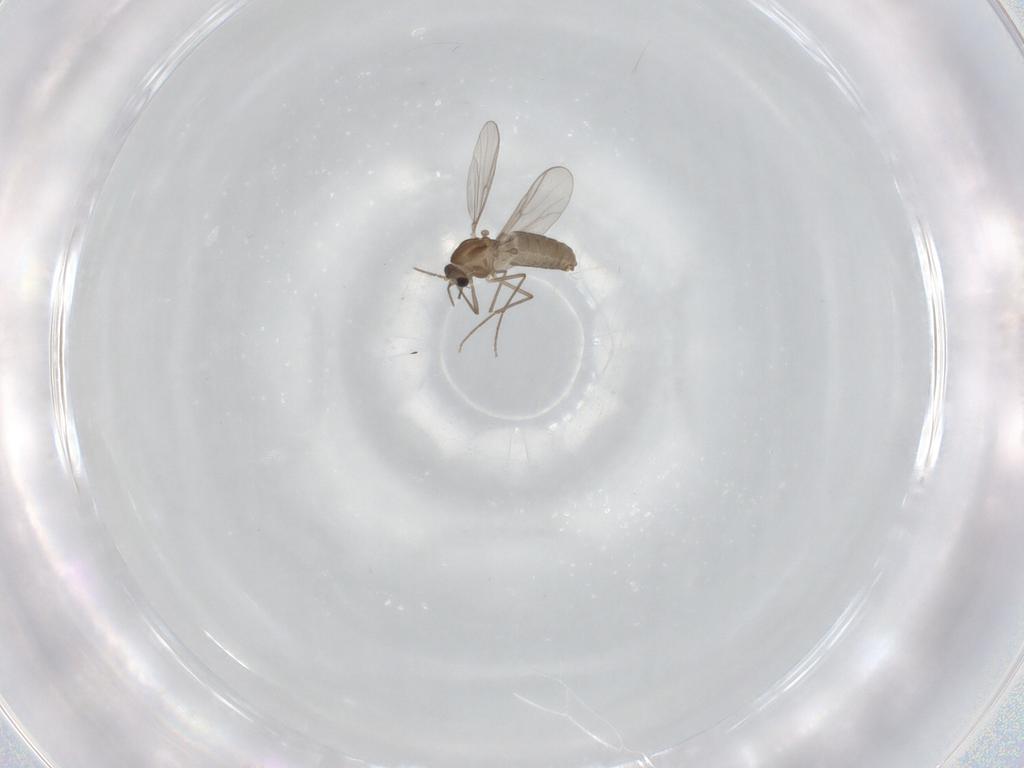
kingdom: Animalia
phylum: Arthropoda
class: Insecta
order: Diptera
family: Chironomidae
